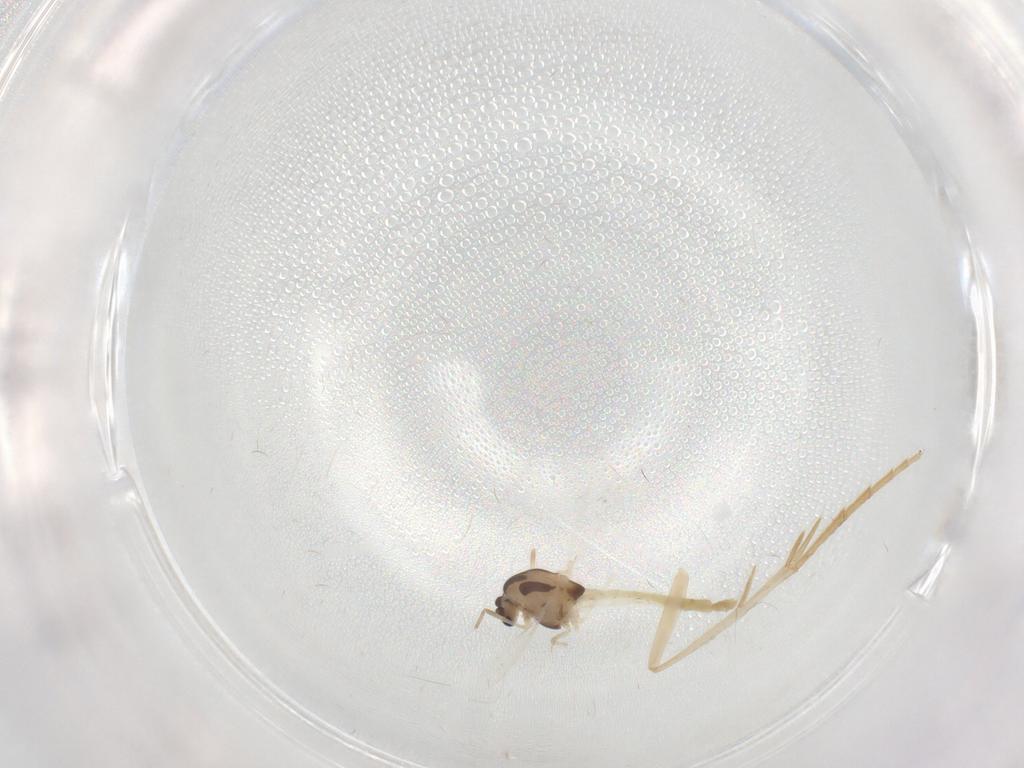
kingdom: Animalia
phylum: Arthropoda
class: Insecta
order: Diptera
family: Chironomidae
